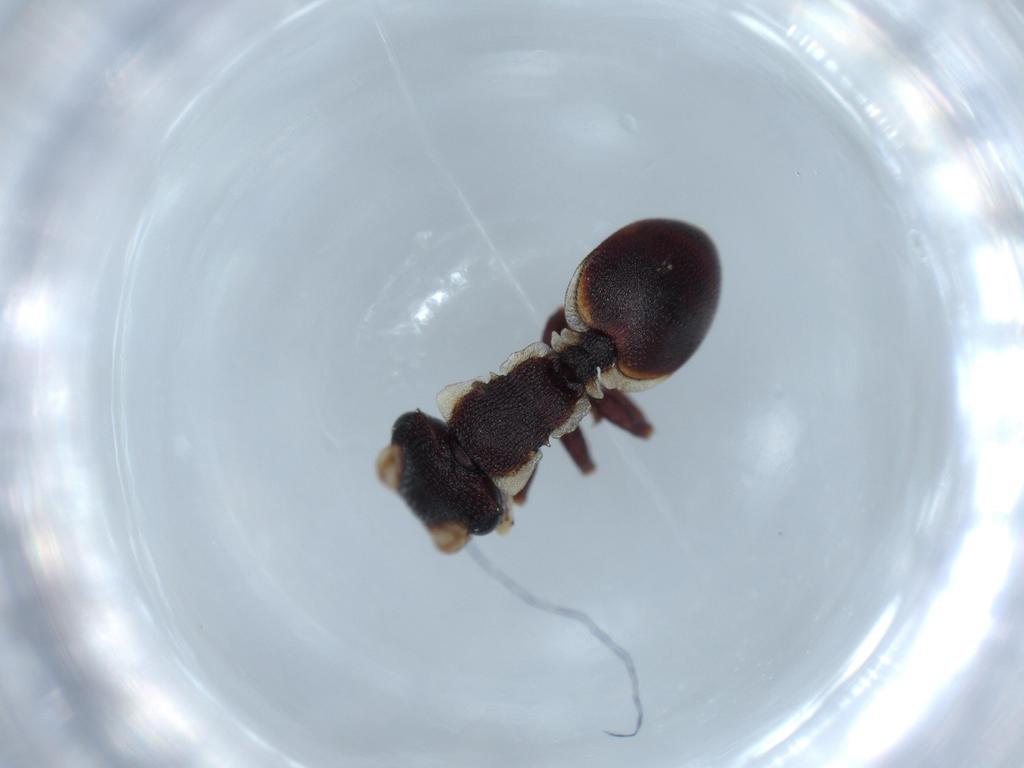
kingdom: Animalia
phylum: Arthropoda
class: Insecta
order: Hymenoptera
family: Formicidae
